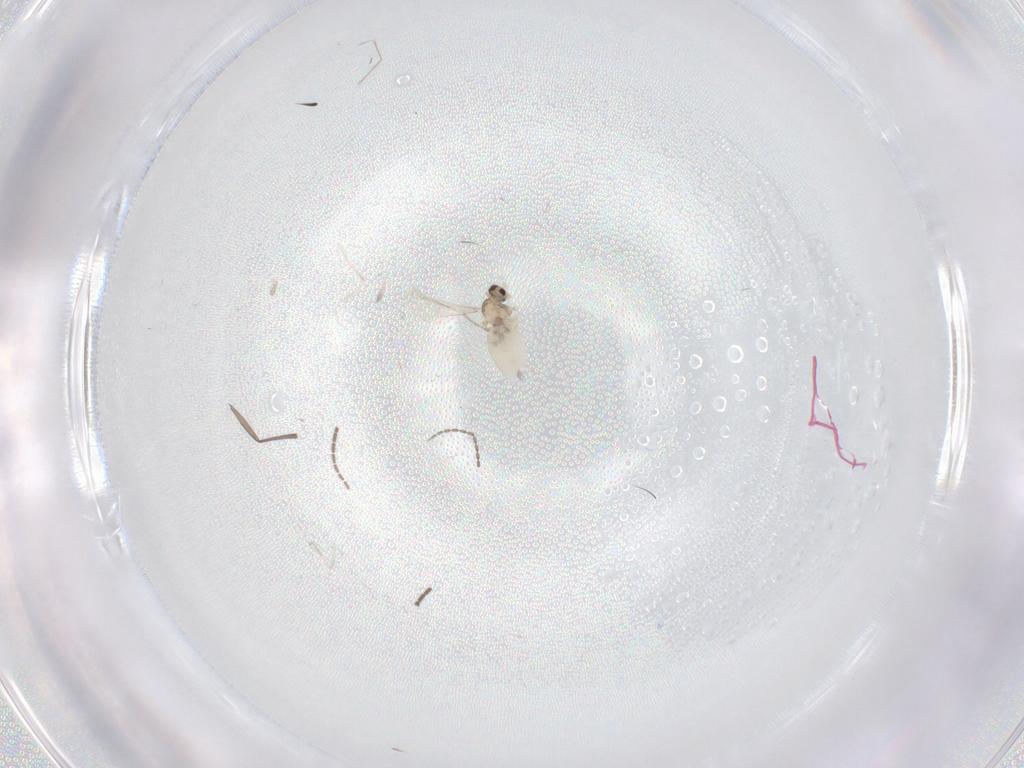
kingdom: Animalia
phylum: Arthropoda
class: Insecta
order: Diptera
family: Cecidomyiidae
